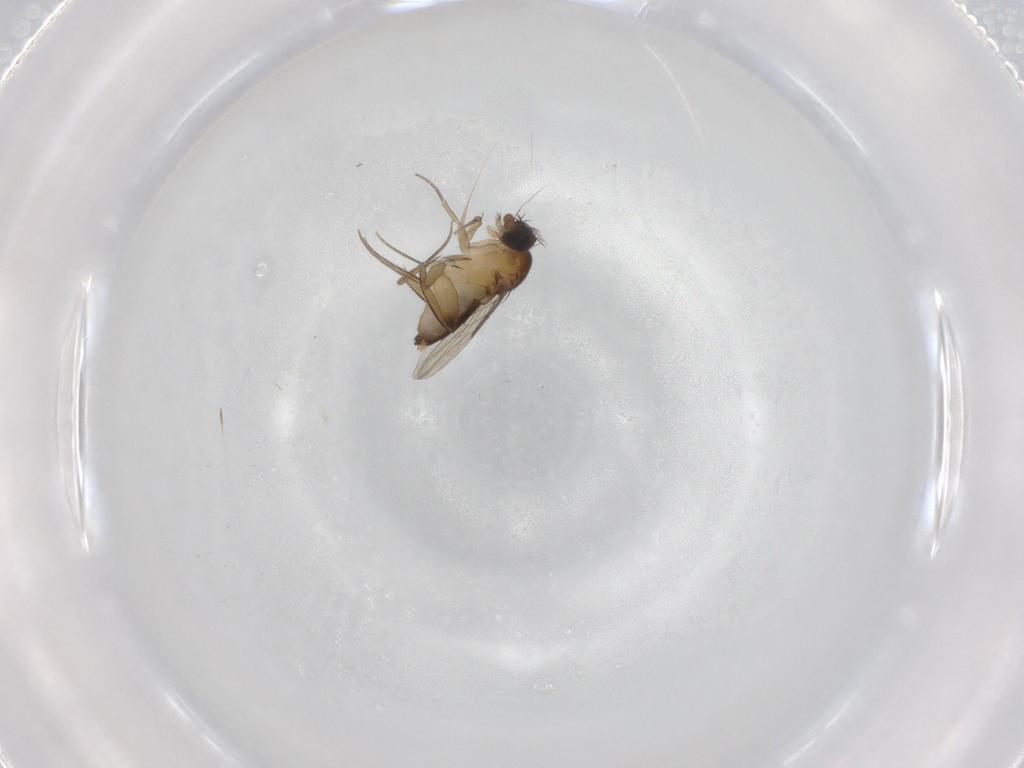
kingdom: Animalia
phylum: Arthropoda
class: Insecta
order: Diptera
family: Phoridae
